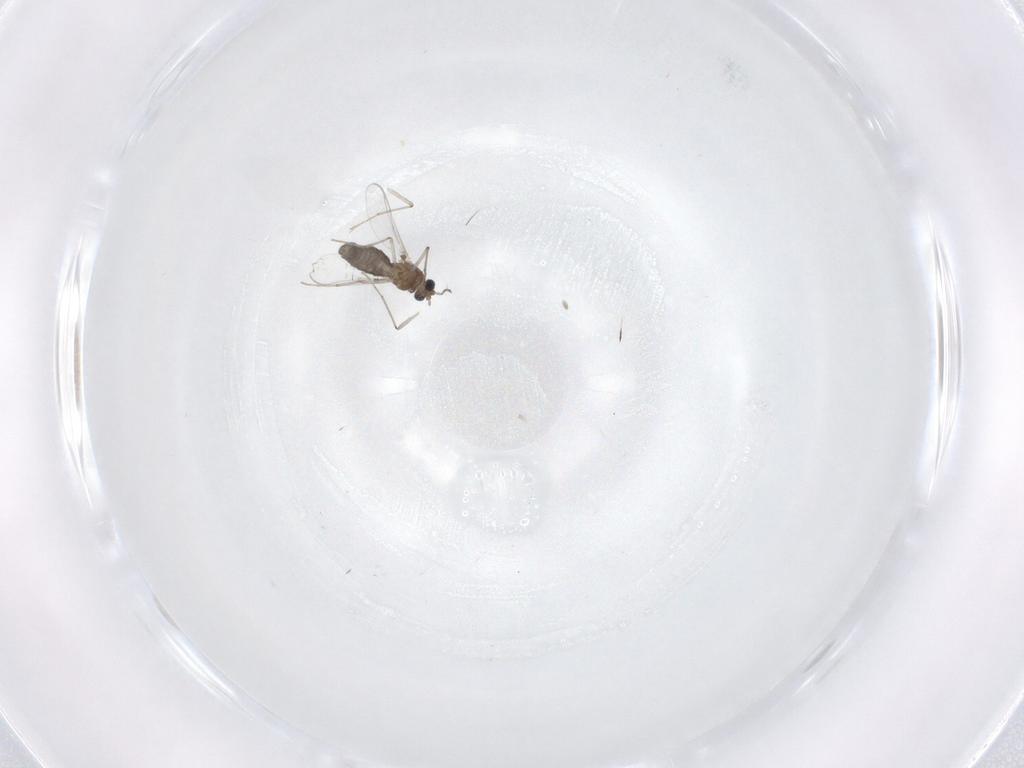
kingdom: Animalia
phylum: Arthropoda
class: Insecta
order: Diptera
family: Chironomidae
